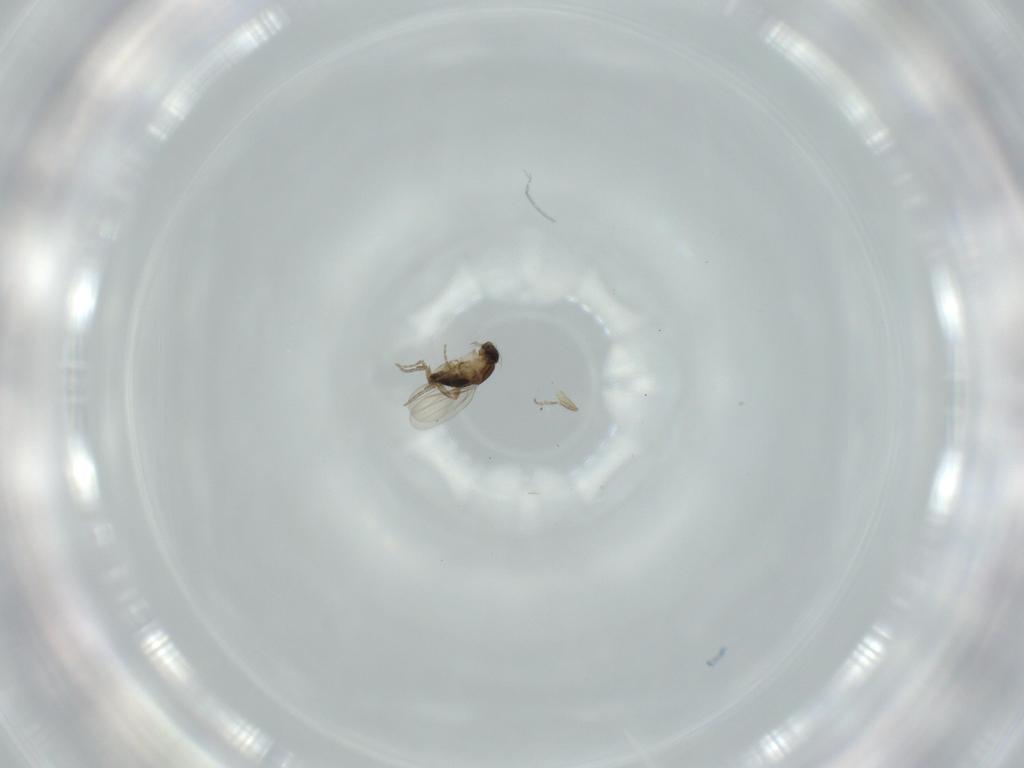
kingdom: Animalia
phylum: Arthropoda
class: Insecta
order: Diptera
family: Phoridae
